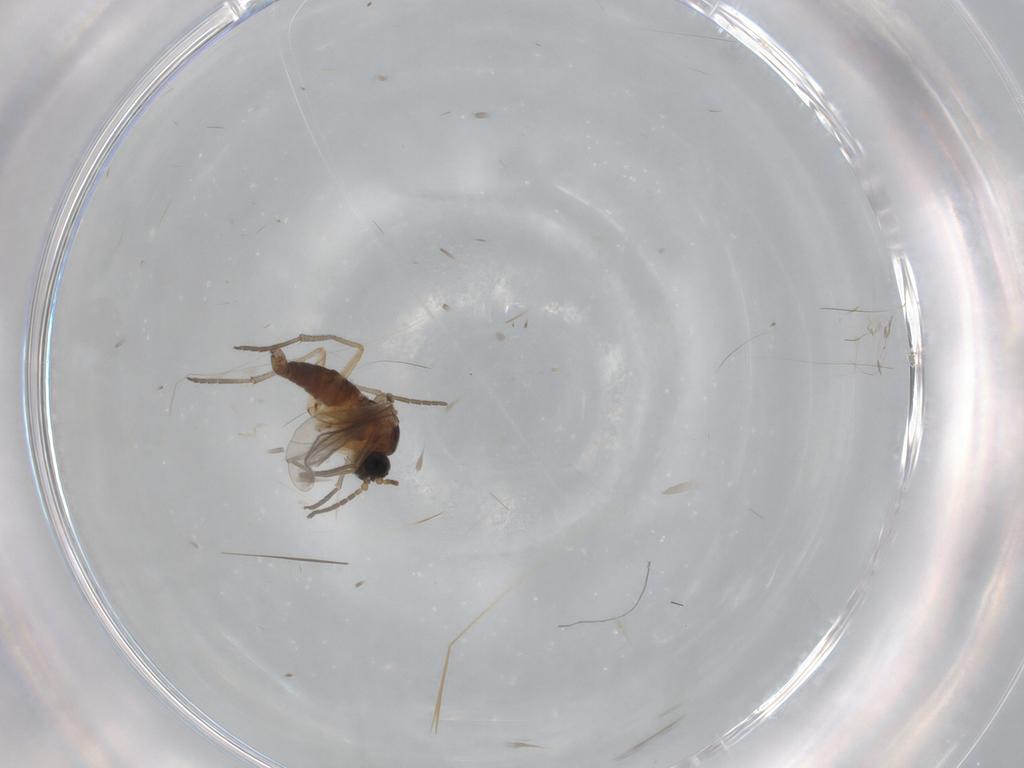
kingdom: Animalia
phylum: Arthropoda
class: Insecta
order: Diptera
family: Sciaridae
